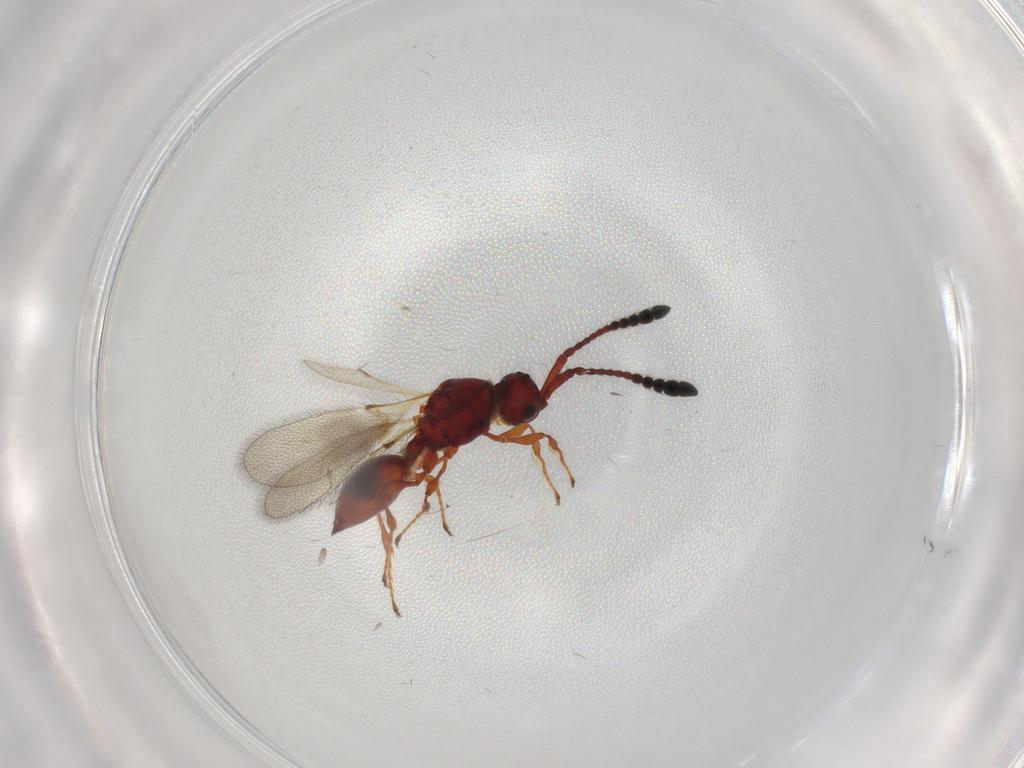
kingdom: Animalia
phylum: Arthropoda
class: Insecta
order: Hymenoptera
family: Diapriidae
